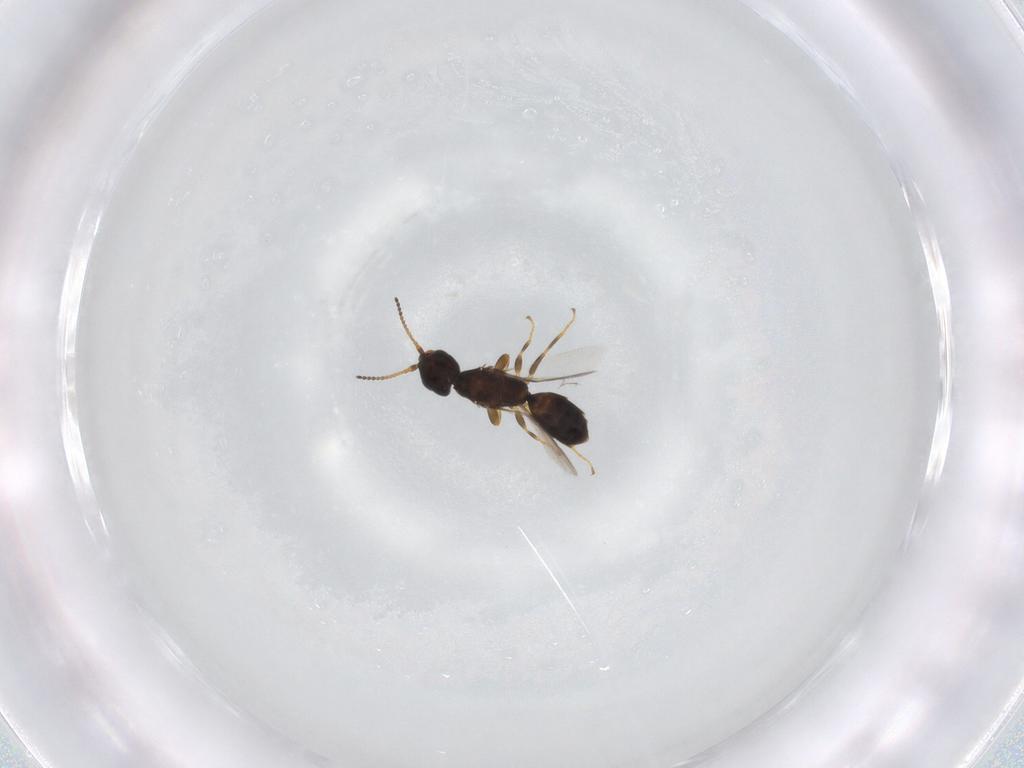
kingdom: Animalia
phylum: Arthropoda
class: Insecta
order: Hymenoptera
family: Bethylidae
